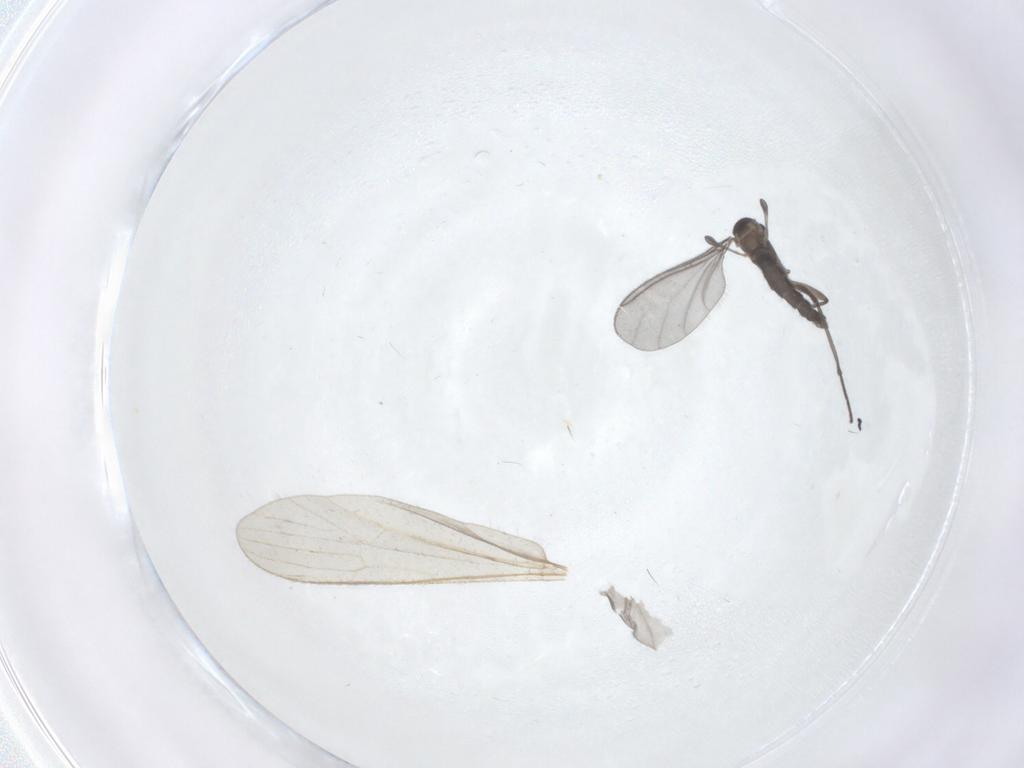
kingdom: Animalia
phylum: Arthropoda
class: Insecta
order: Diptera
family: Sciaridae
